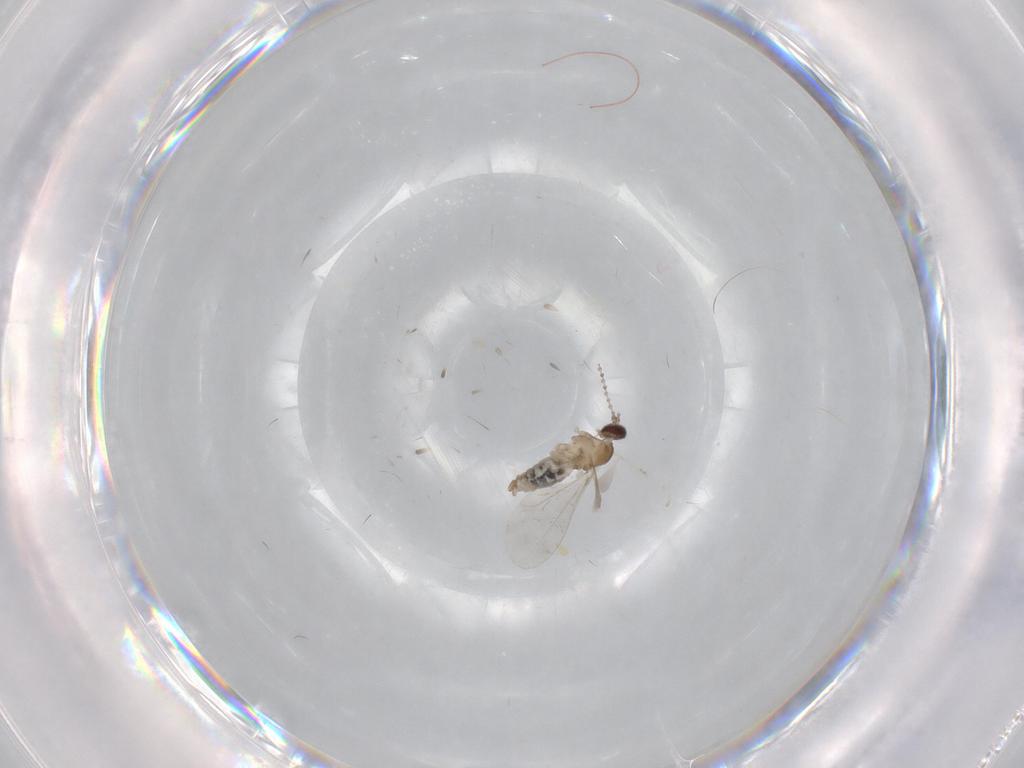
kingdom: Animalia
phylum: Arthropoda
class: Insecta
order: Diptera
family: Cecidomyiidae
